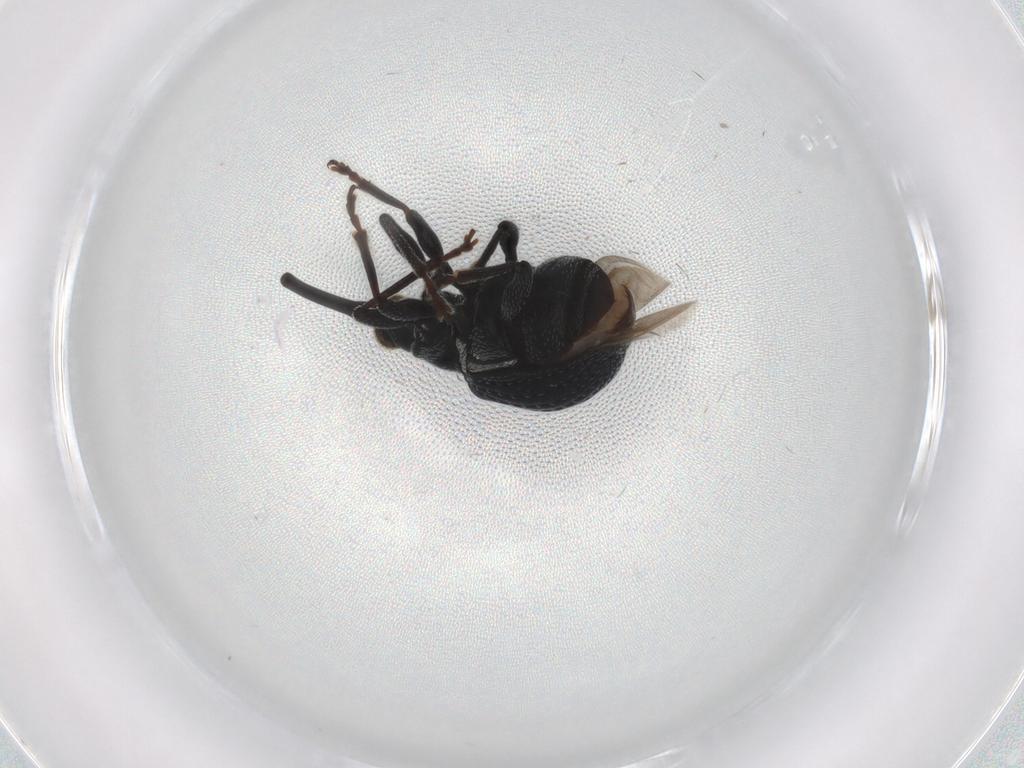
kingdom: Animalia
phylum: Arthropoda
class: Insecta
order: Coleoptera
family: Brentidae
